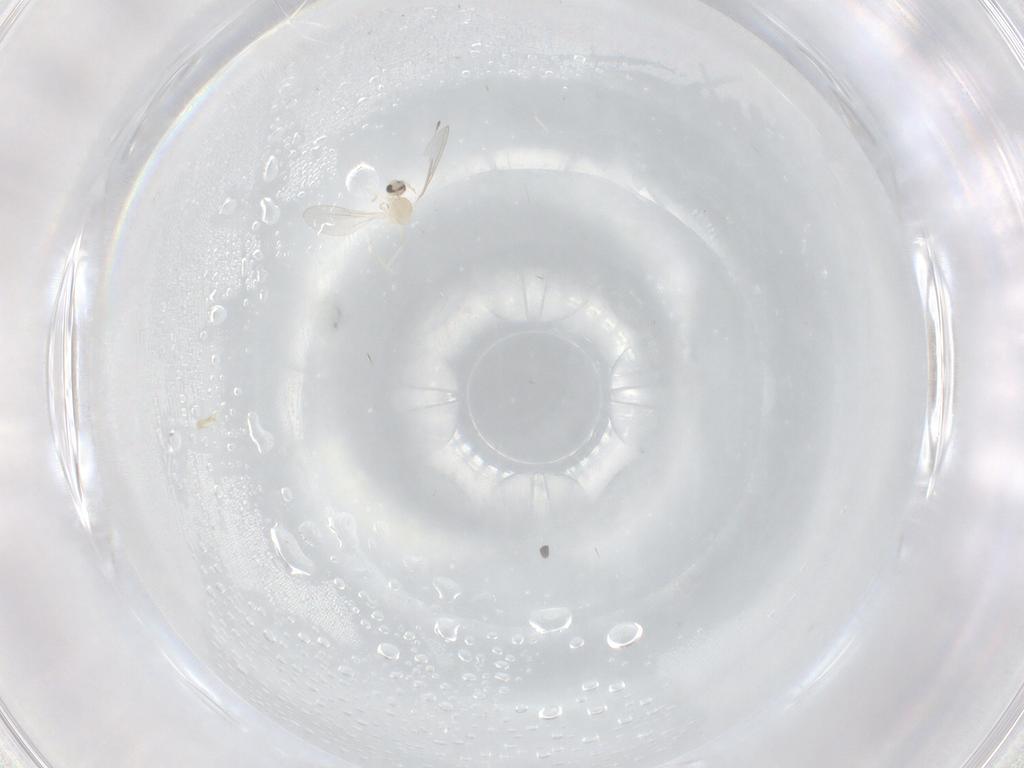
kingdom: Animalia
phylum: Arthropoda
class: Insecta
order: Diptera
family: Cecidomyiidae
